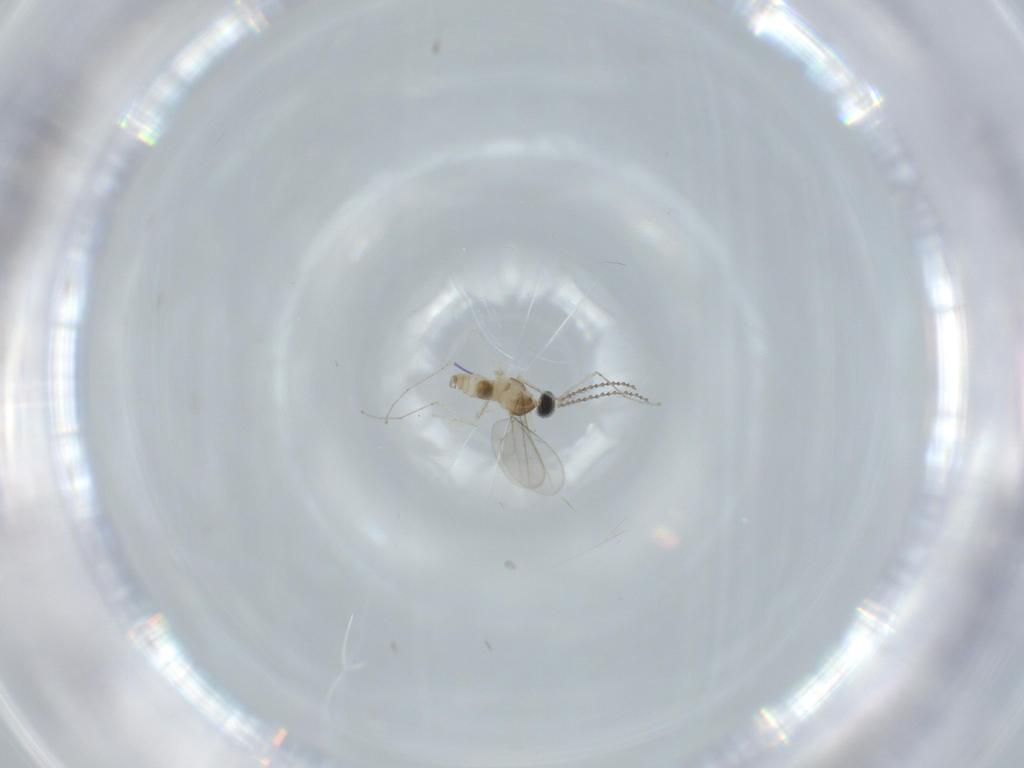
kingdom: Animalia
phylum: Arthropoda
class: Insecta
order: Diptera
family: Cecidomyiidae
